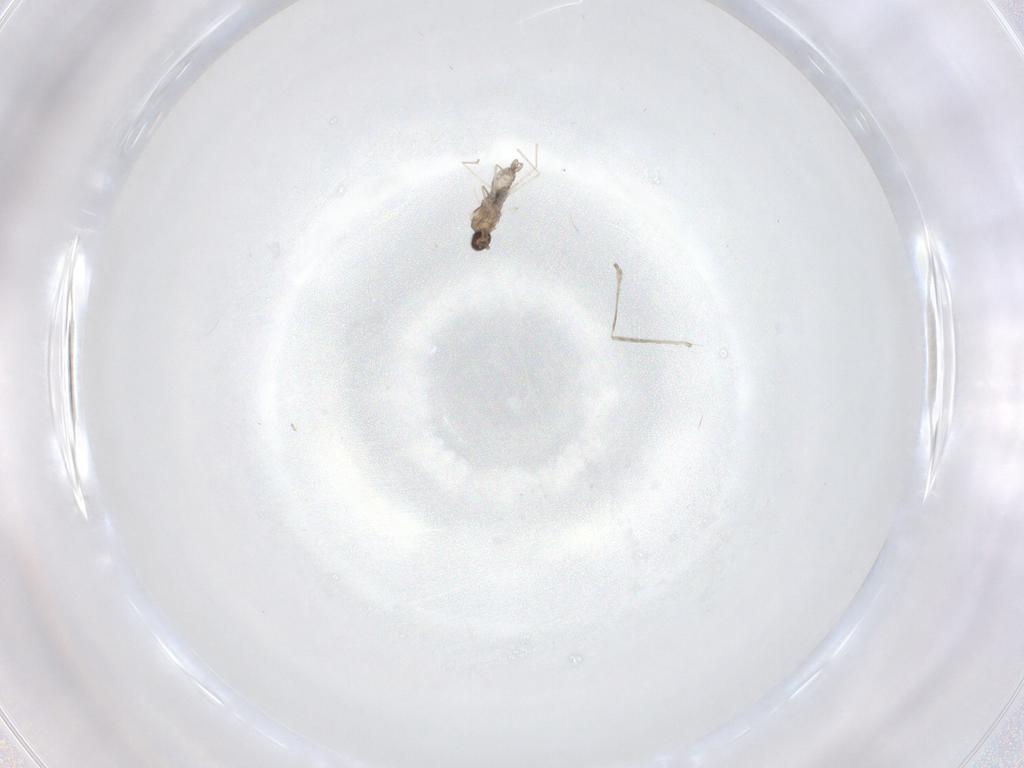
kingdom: Animalia
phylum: Arthropoda
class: Insecta
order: Diptera
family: Cecidomyiidae
